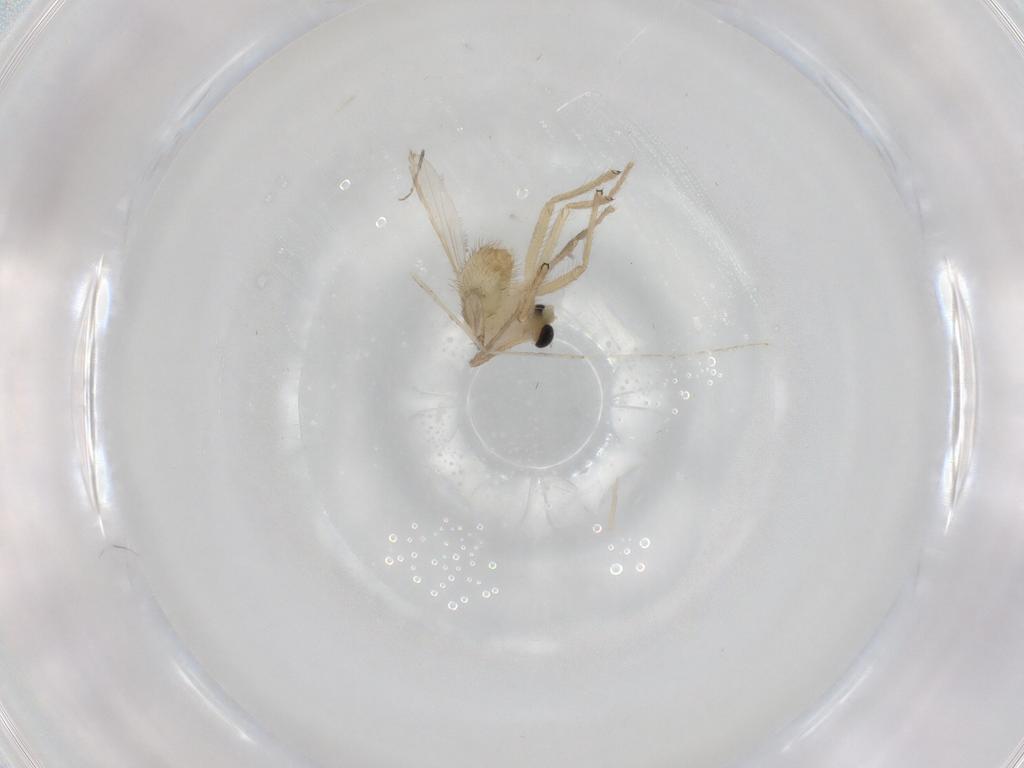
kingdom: Animalia
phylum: Arthropoda
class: Insecta
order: Diptera
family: Chironomidae
